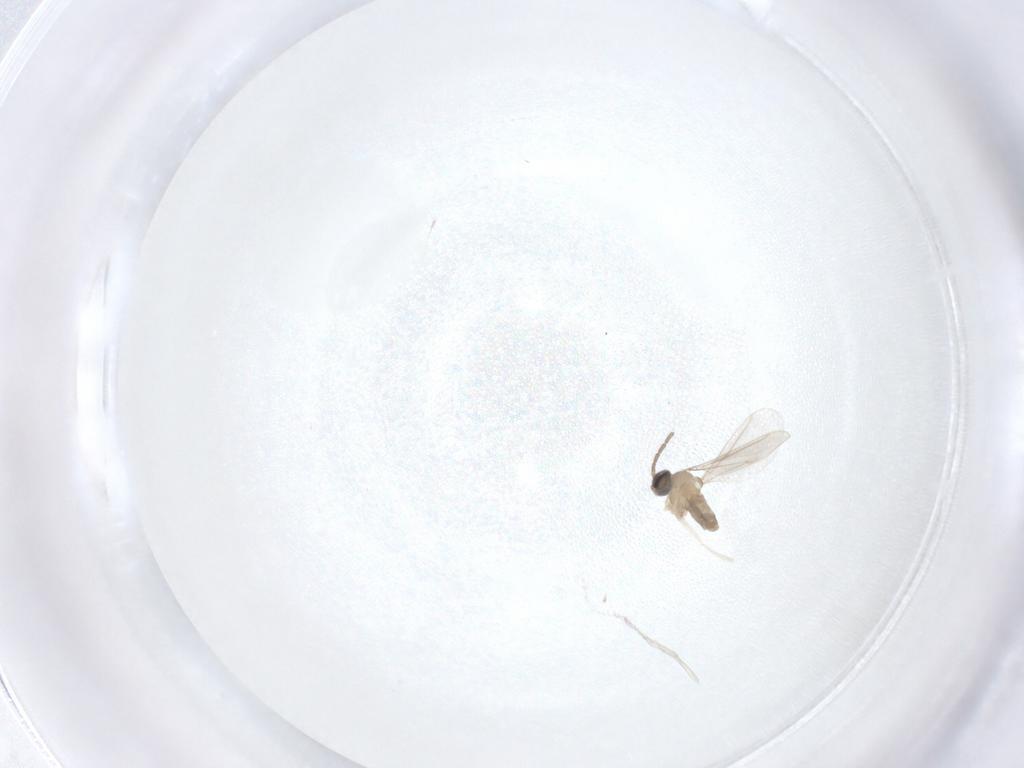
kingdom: Animalia
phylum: Arthropoda
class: Insecta
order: Diptera
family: Cecidomyiidae
